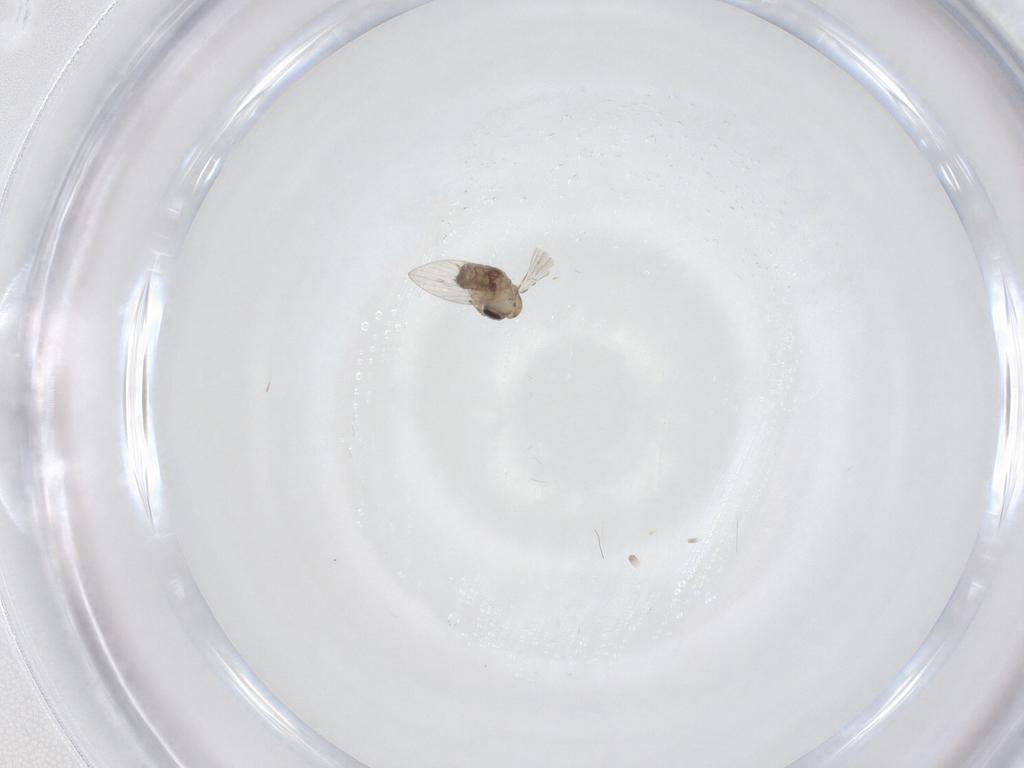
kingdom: Animalia
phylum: Arthropoda
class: Insecta
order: Diptera
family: Psychodidae
